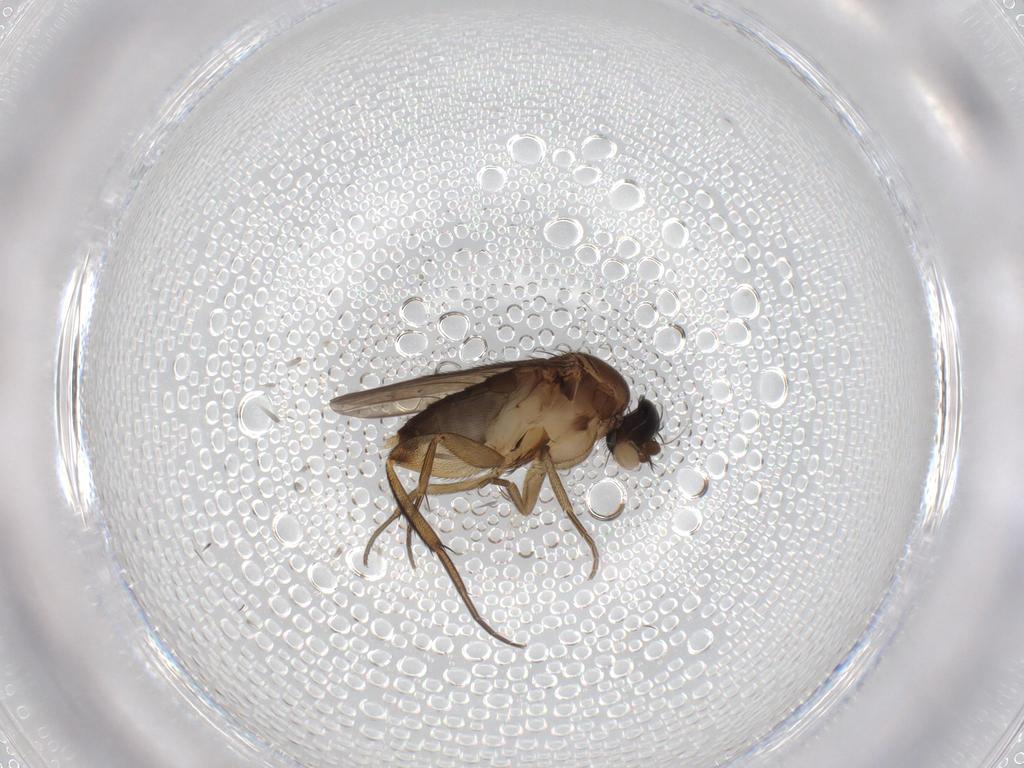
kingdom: Animalia
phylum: Arthropoda
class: Insecta
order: Diptera
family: Phoridae
